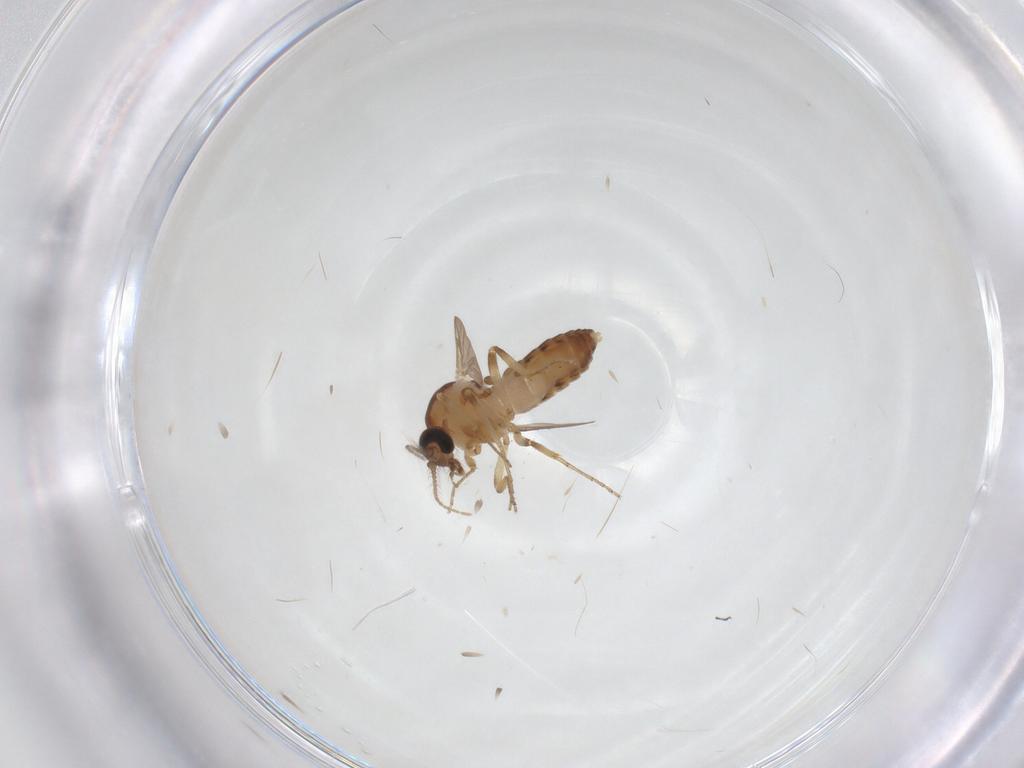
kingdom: Animalia
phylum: Arthropoda
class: Insecta
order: Diptera
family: Ceratopogonidae
